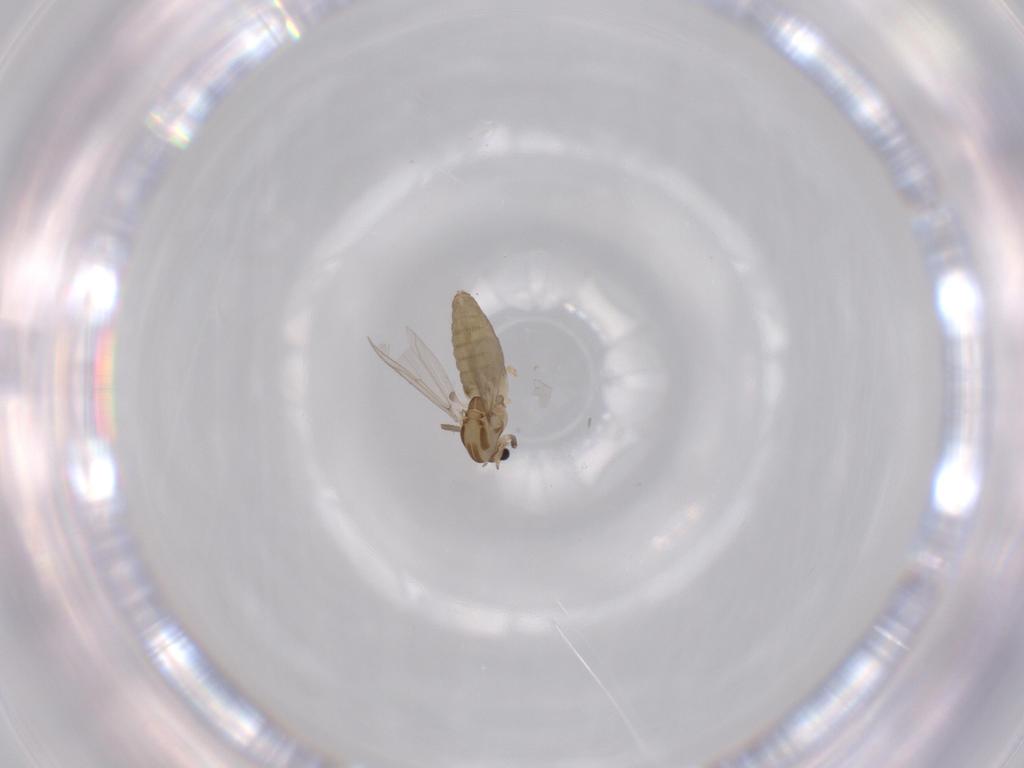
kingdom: Animalia
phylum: Arthropoda
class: Insecta
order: Diptera
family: Chironomidae
